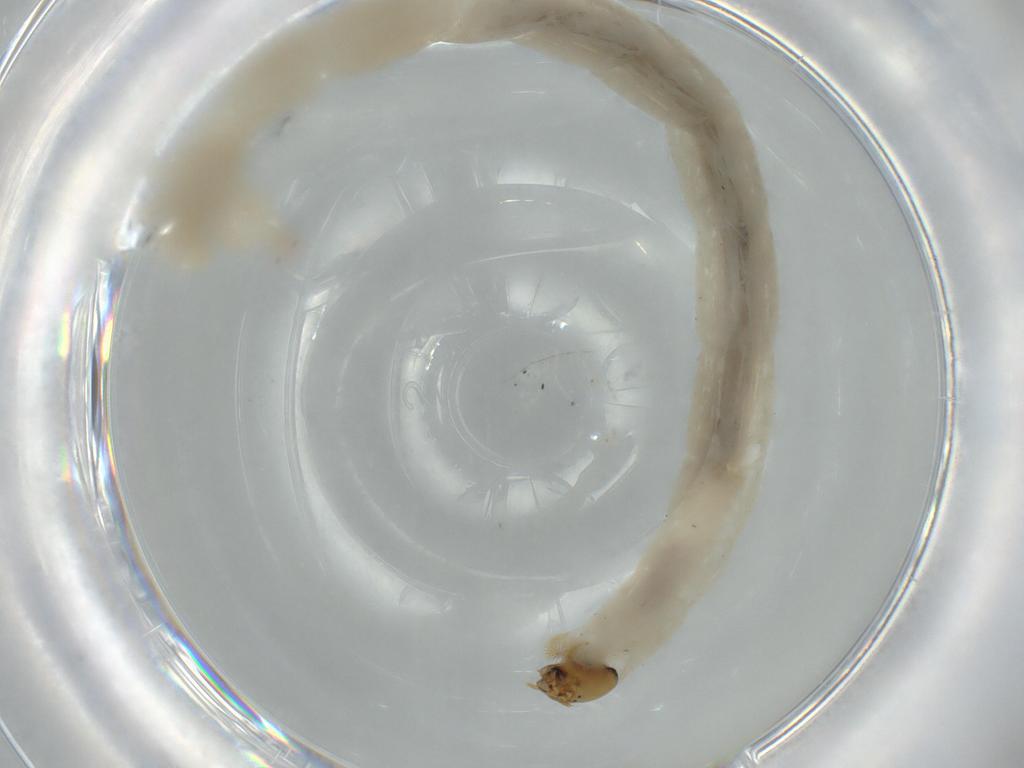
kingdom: Animalia
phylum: Arthropoda
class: Insecta
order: Diptera
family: Chironomidae
